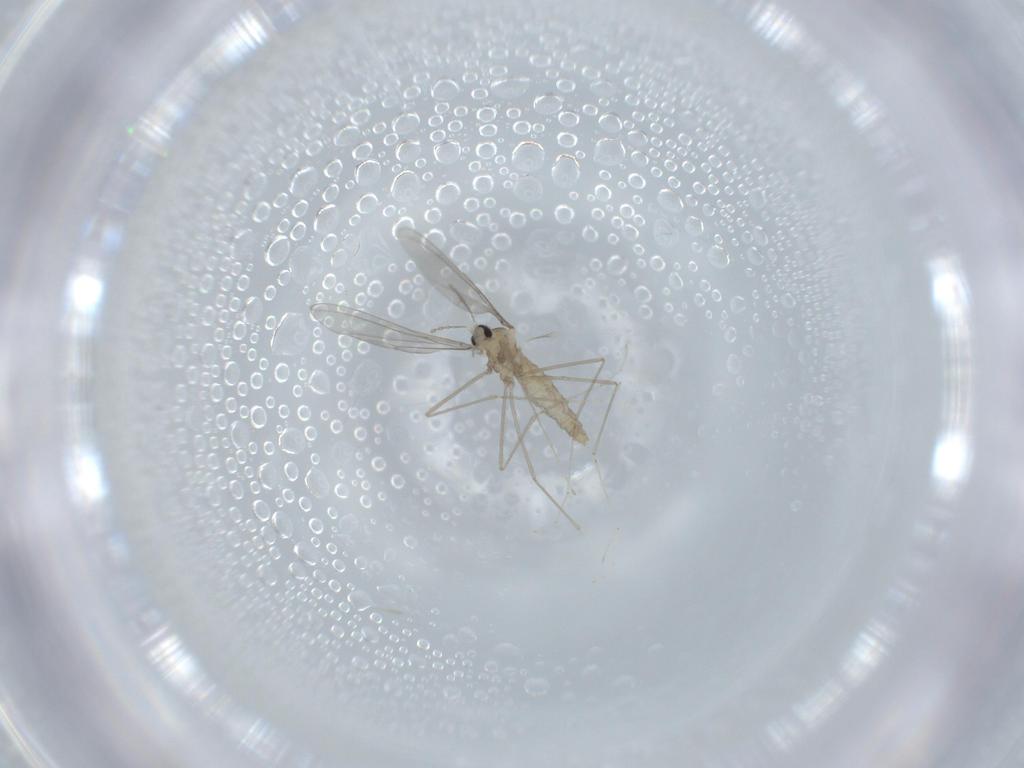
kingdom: Animalia
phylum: Arthropoda
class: Insecta
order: Diptera
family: Cecidomyiidae
